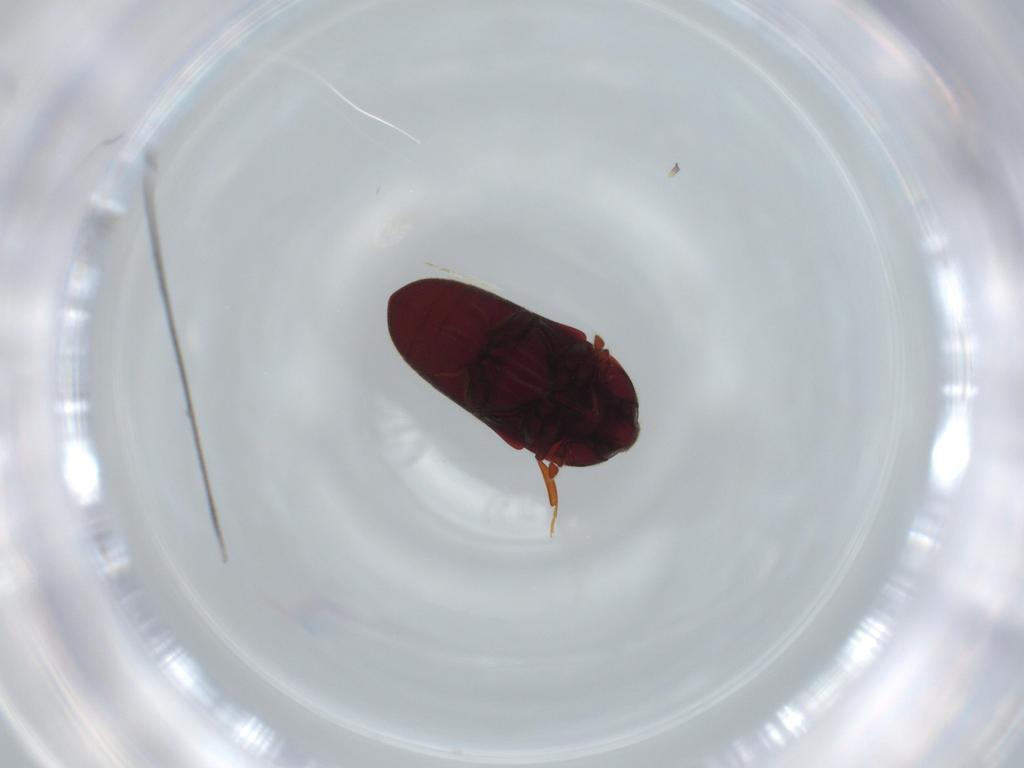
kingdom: Animalia
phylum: Arthropoda
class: Insecta
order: Coleoptera
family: Throscidae
